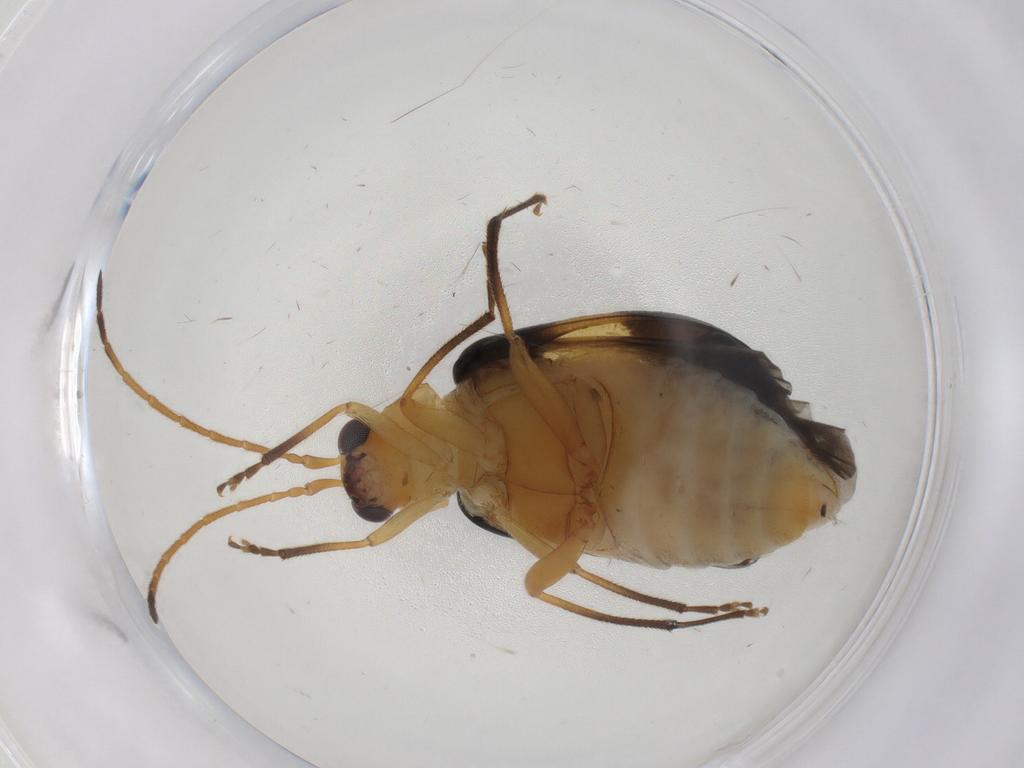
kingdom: Animalia
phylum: Arthropoda
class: Insecta
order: Coleoptera
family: Chrysomelidae
